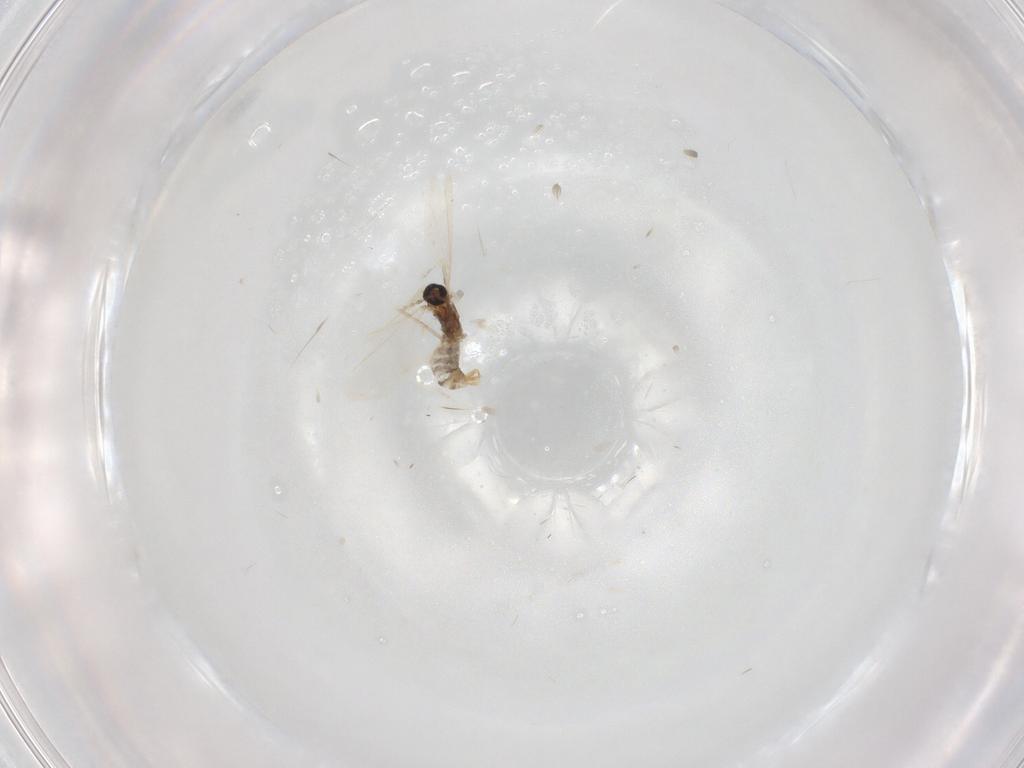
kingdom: Animalia
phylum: Arthropoda
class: Insecta
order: Diptera
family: Cecidomyiidae
